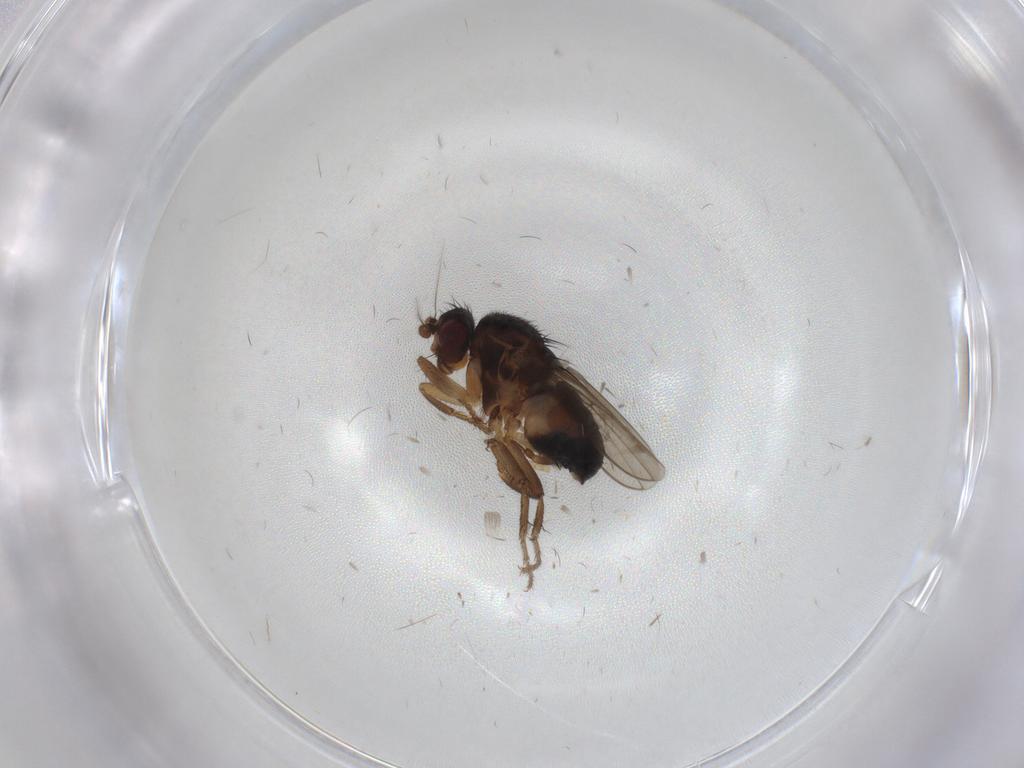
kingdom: Animalia
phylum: Arthropoda
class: Insecta
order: Diptera
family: Sphaeroceridae
